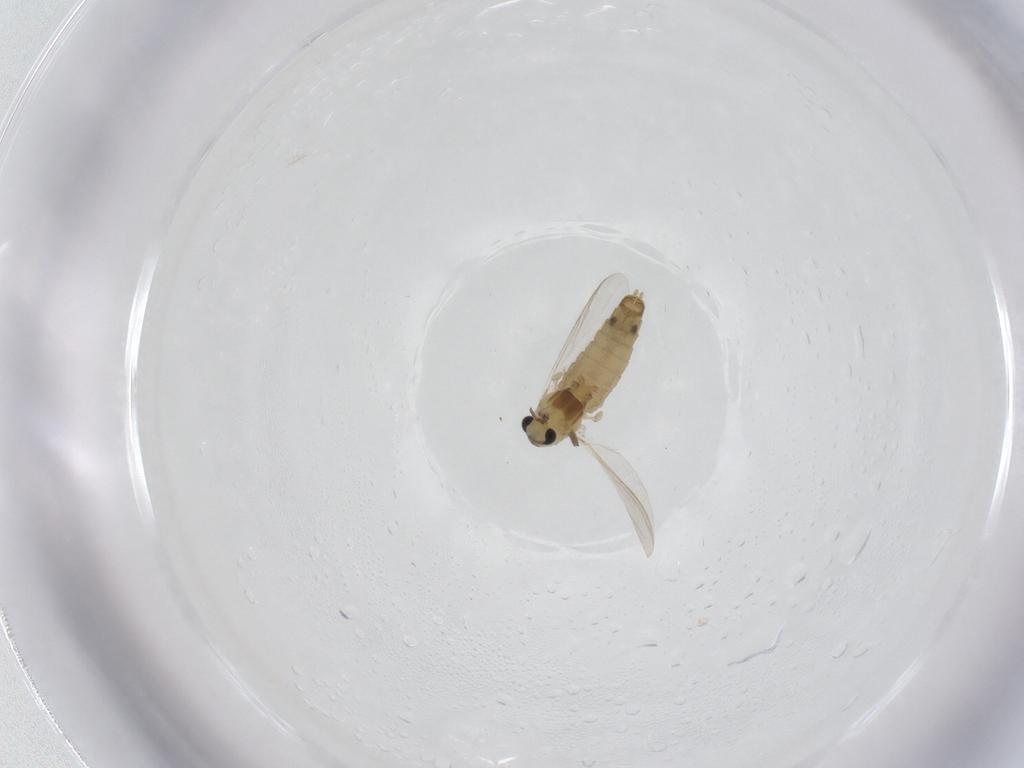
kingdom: Animalia
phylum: Arthropoda
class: Insecta
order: Diptera
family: Chironomidae
